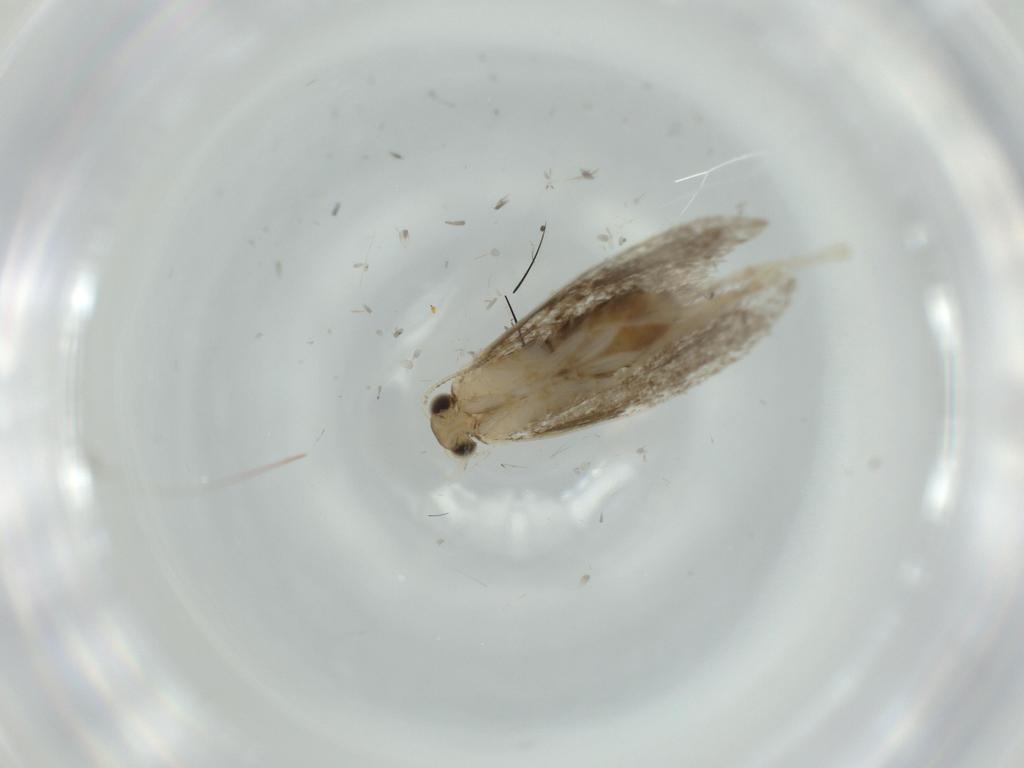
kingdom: Animalia
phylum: Arthropoda
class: Insecta
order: Lepidoptera
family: Tineidae
